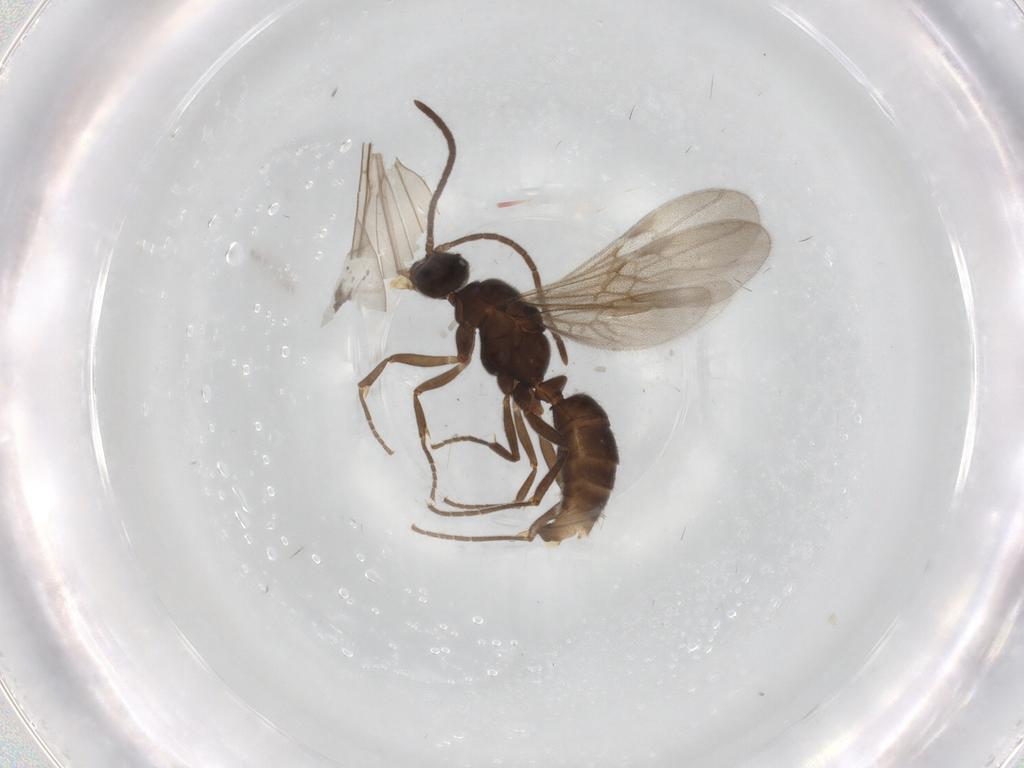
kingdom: Animalia
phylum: Arthropoda
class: Insecta
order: Hymenoptera
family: Formicidae
